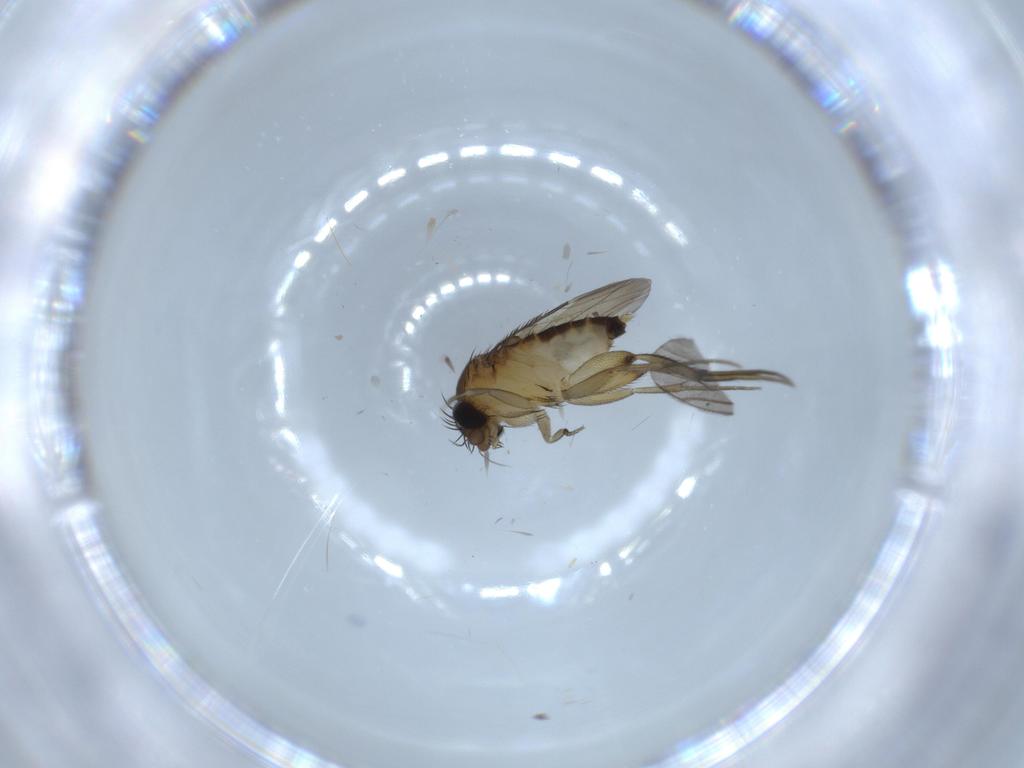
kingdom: Animalia
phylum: Arthropoda
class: Insecta
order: Diptera
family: Phoridae
